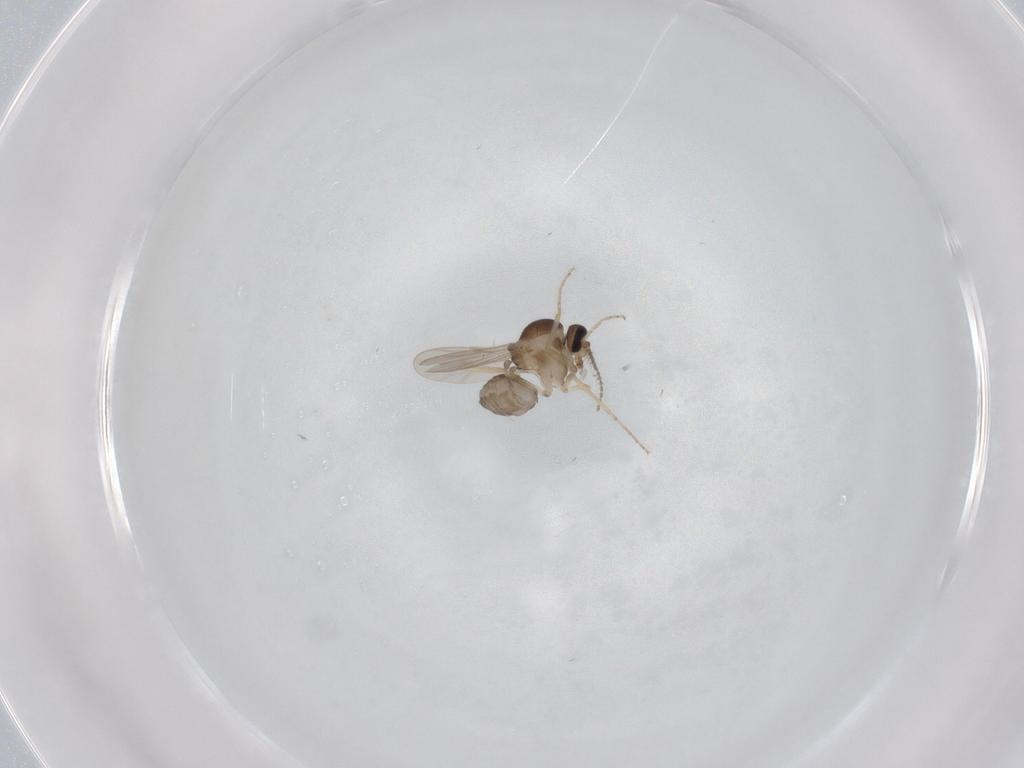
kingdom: Animalia
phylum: Arthropoda
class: Insecta
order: Diptera
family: Ceratopogonidae
